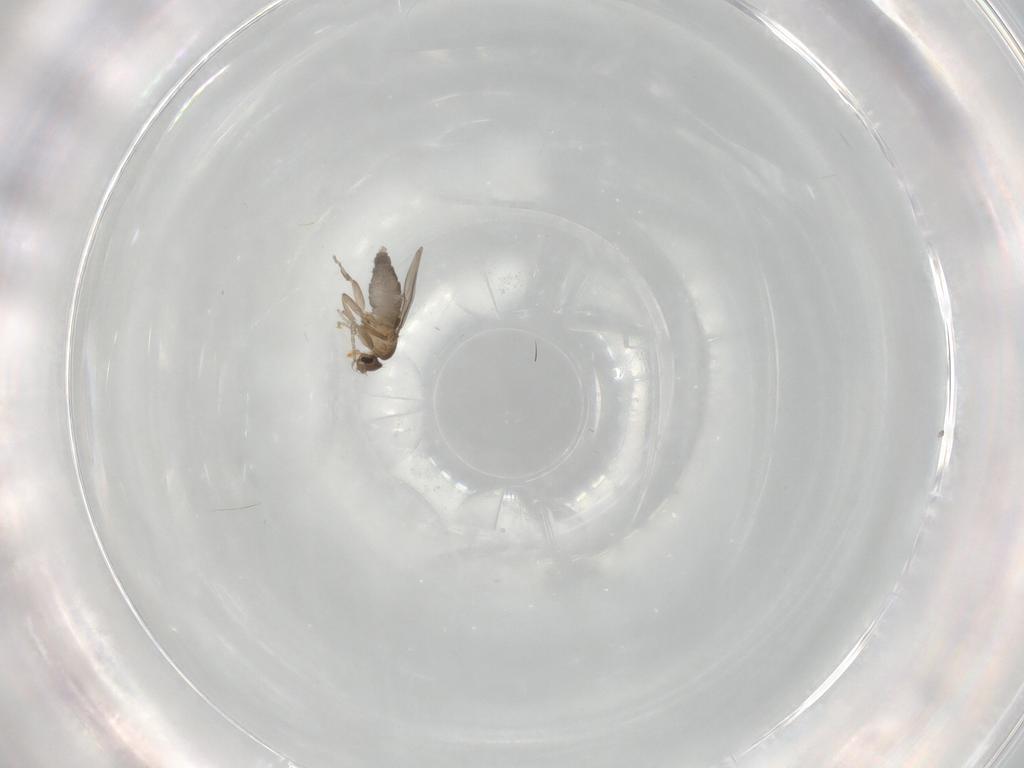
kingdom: Animalia
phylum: Arthropoda
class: Insecta
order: Diptera
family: Phoridae
